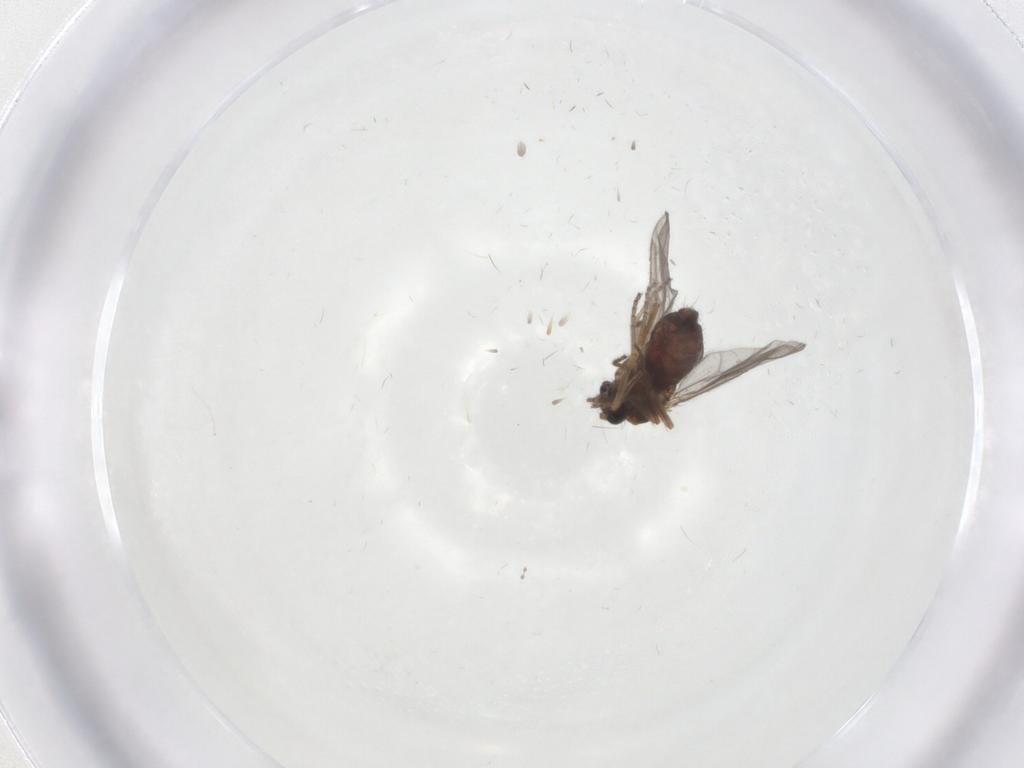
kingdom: Animalia
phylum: Arthropoda
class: Insecta
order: Diptera
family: Ceratopogonidae
